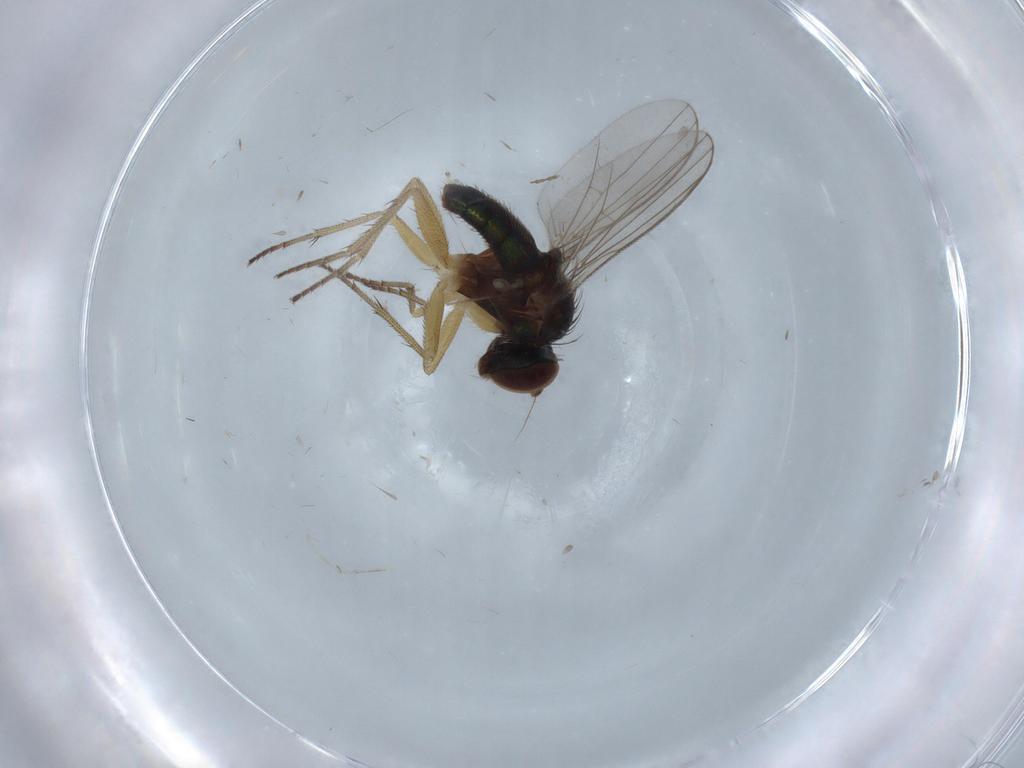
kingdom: Animalia
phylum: Arthropoda
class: Insecta
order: Diptera
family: Chironomidae
